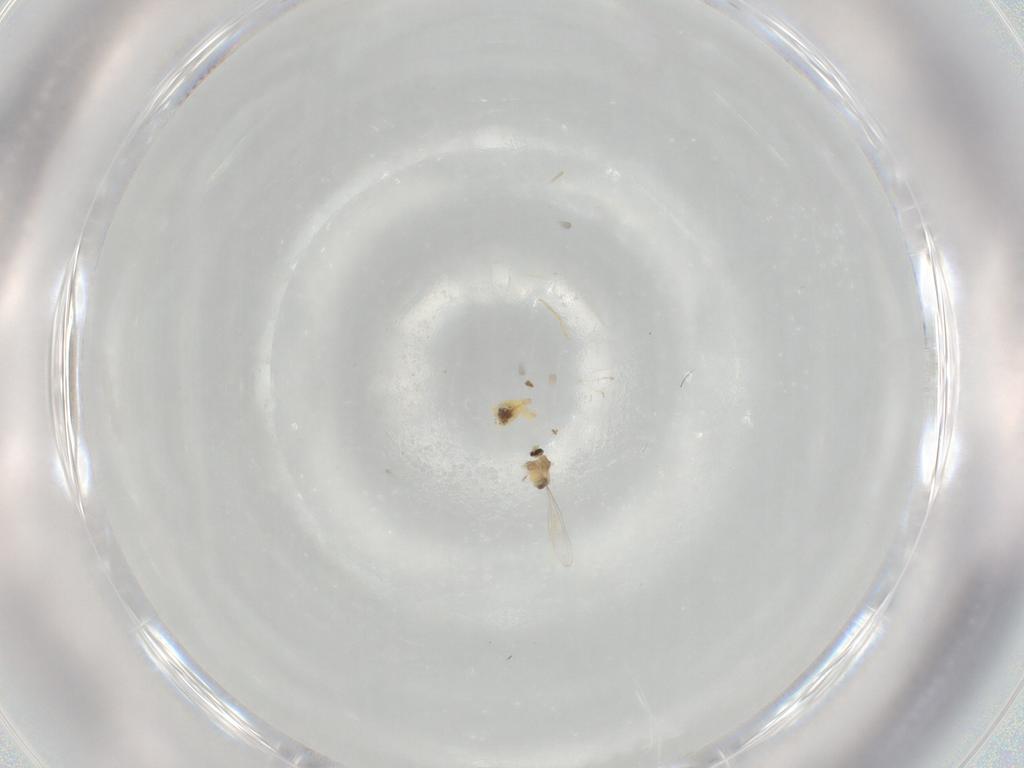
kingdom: Animalia
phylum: Arthropoda
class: Insecta
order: Diptera
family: Cecidomyiidae
